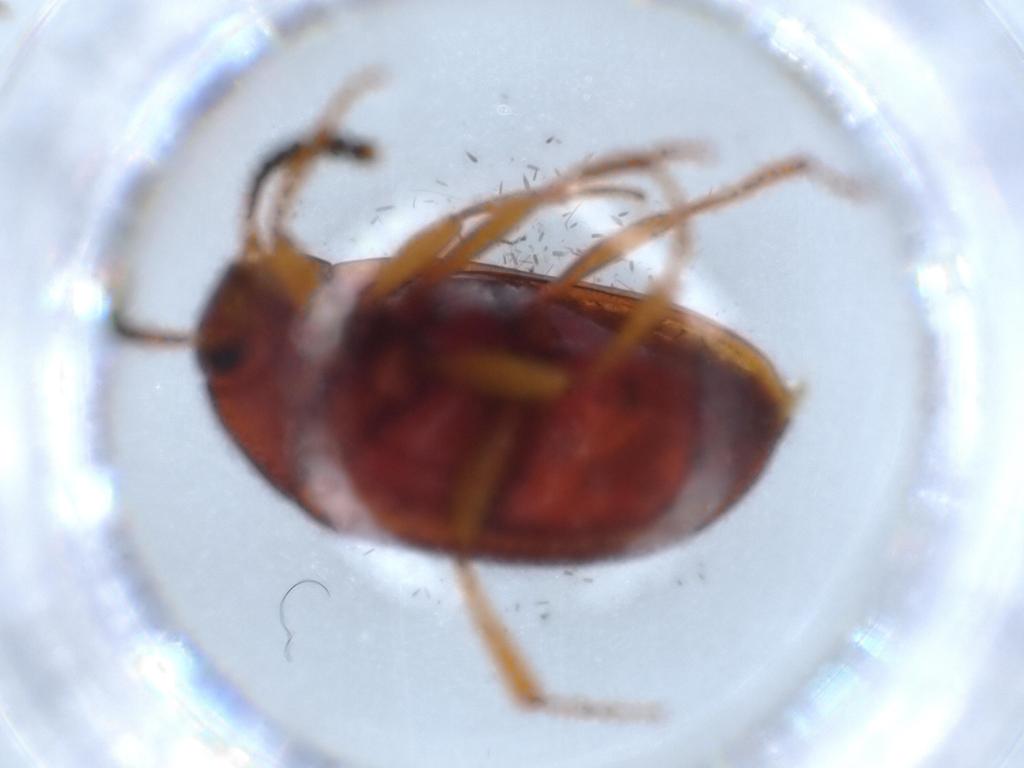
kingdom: Animalia
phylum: Arthropoda
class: Insecta
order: Coleoptera
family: Tenebrionidae
